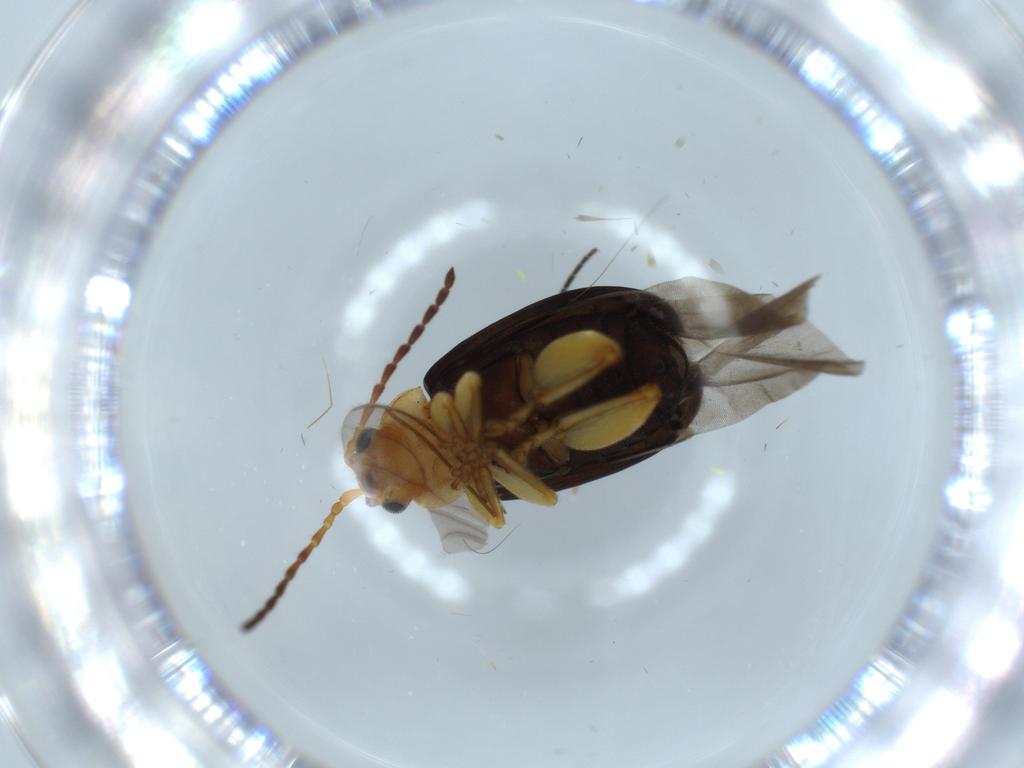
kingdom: Animalia
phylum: Arthropoda
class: Insecta
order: Coleoptera
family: Chrysomelidae
